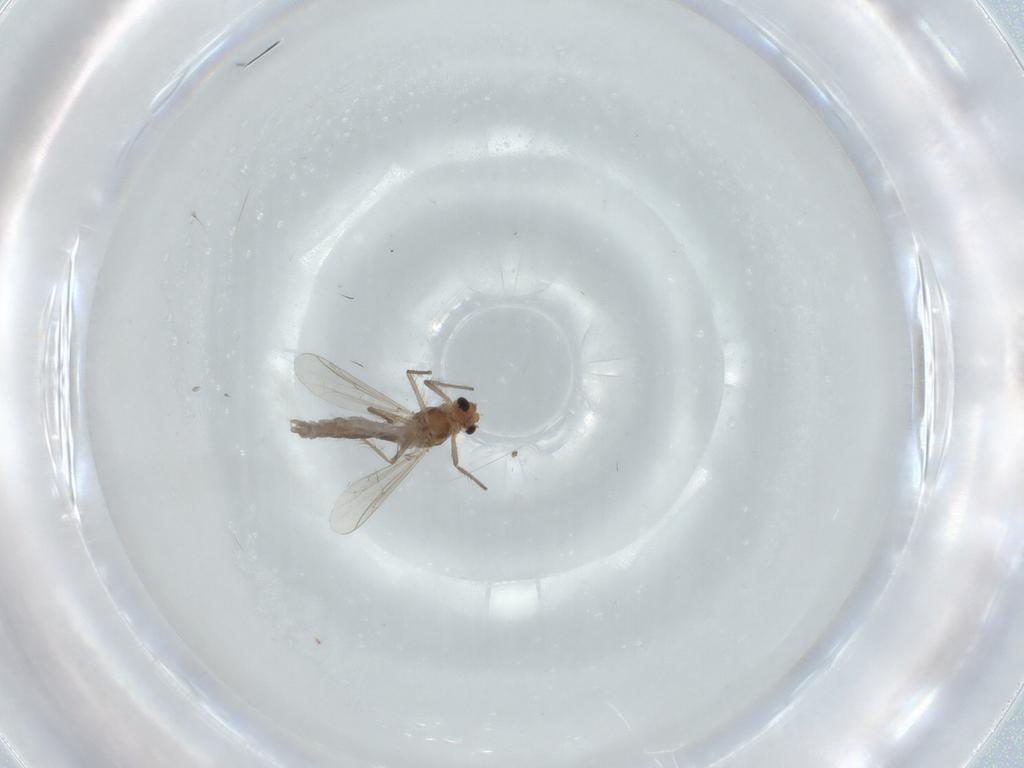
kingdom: Animalia
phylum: Arthropoda
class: Insecta
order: Diptera
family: Chironomidae
